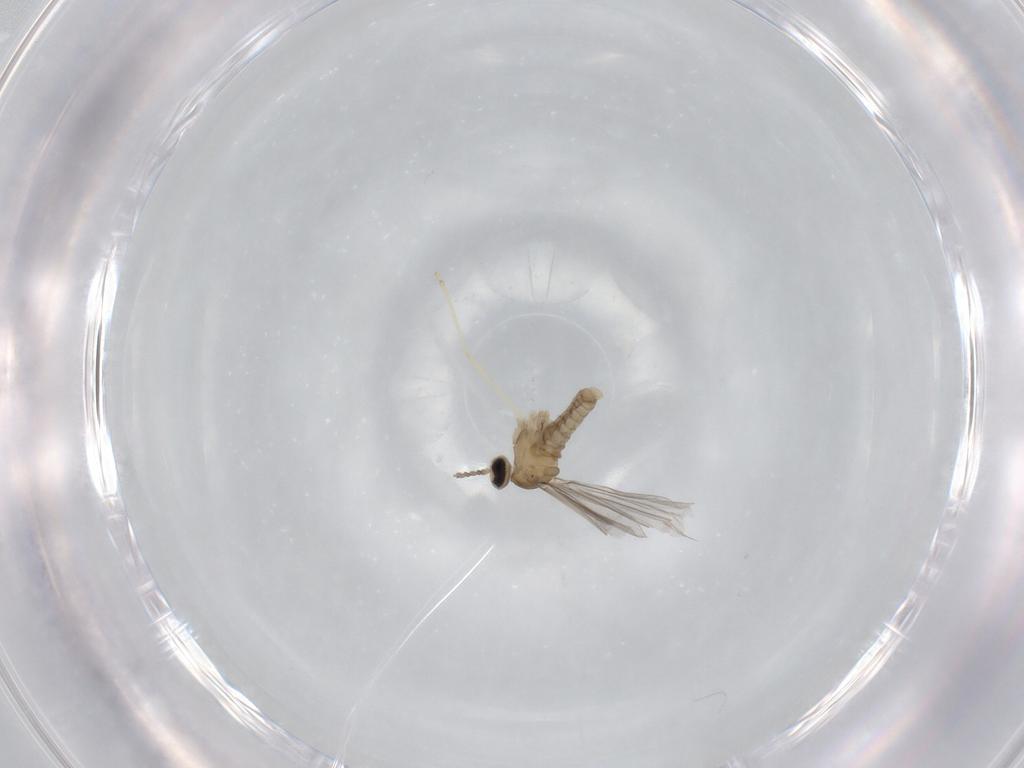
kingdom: Animalia
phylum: Arthropoda
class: Insecta
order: Diptera
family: Cecidomyiidae
